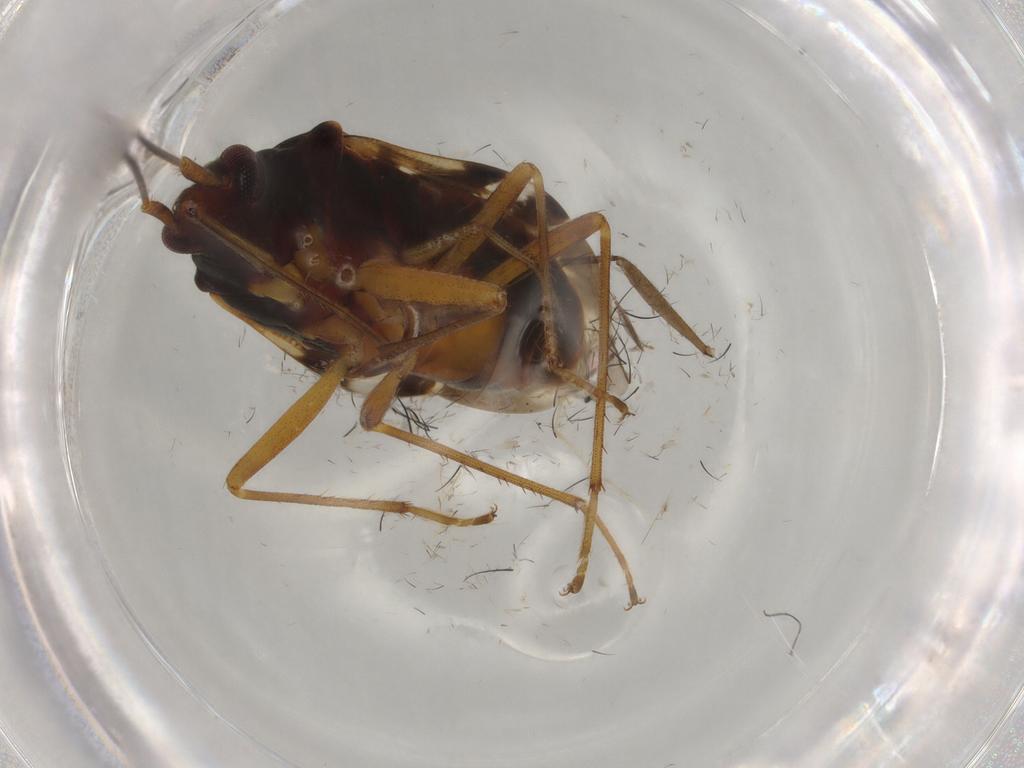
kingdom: Animalia
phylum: Arthropoda
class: Insecta
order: Hemiptera
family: Rhyparochromidae
